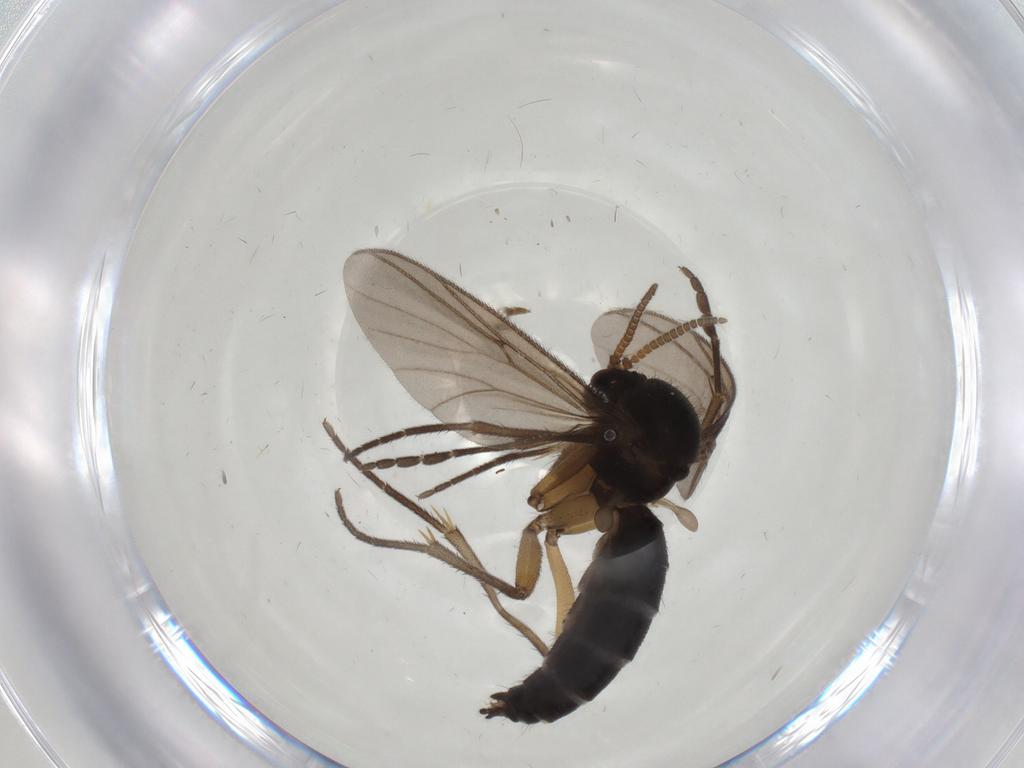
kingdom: Animalia
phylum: Arthropoda
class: Insecta
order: Diptera
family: Mycetophilidae
